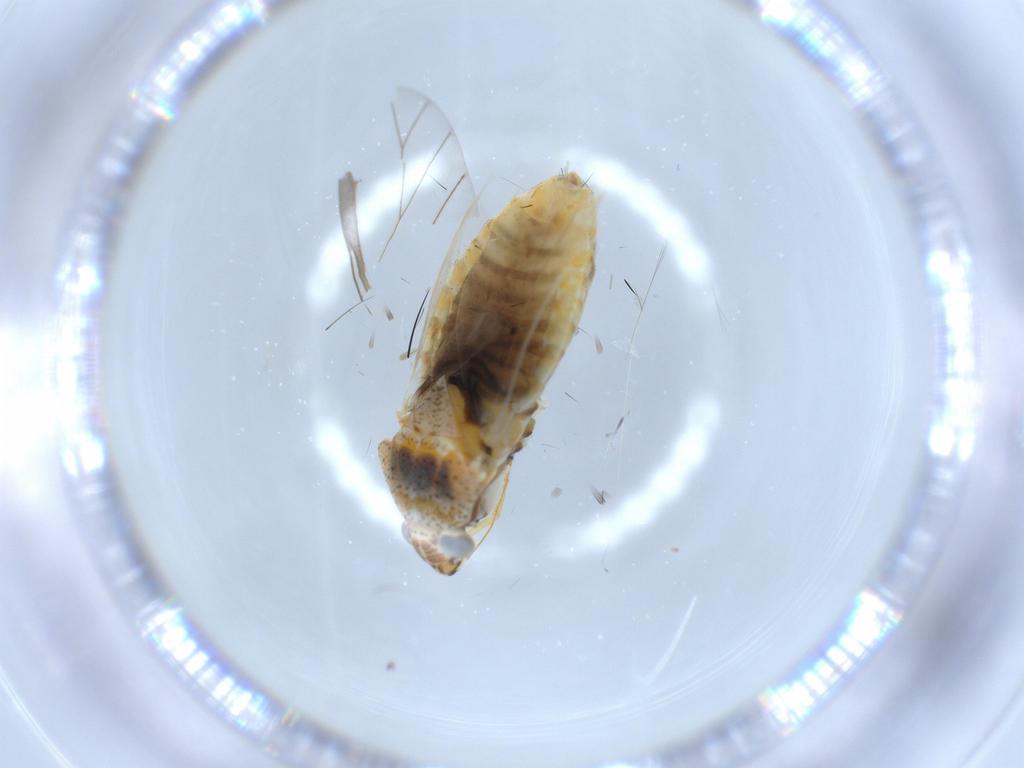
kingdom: Animalia
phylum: Arthropoda
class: Insecta
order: Hemiptera
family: Miridae
